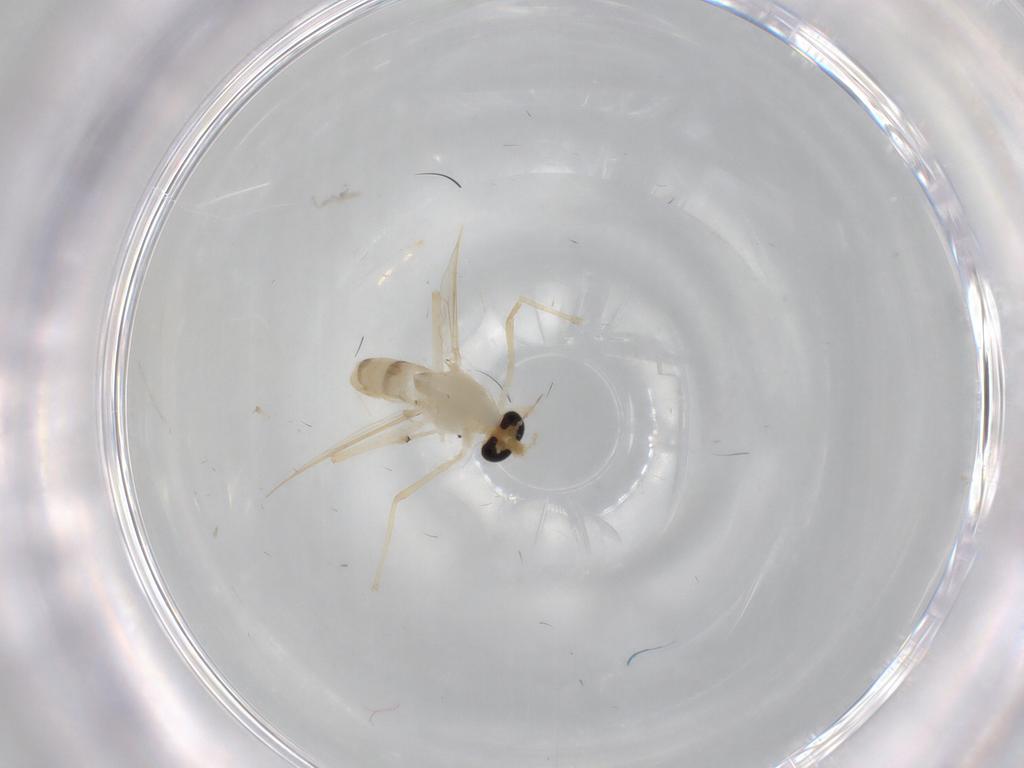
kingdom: Animalia
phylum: Arthropoda
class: Insecta
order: Diptera
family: Chironomidae
